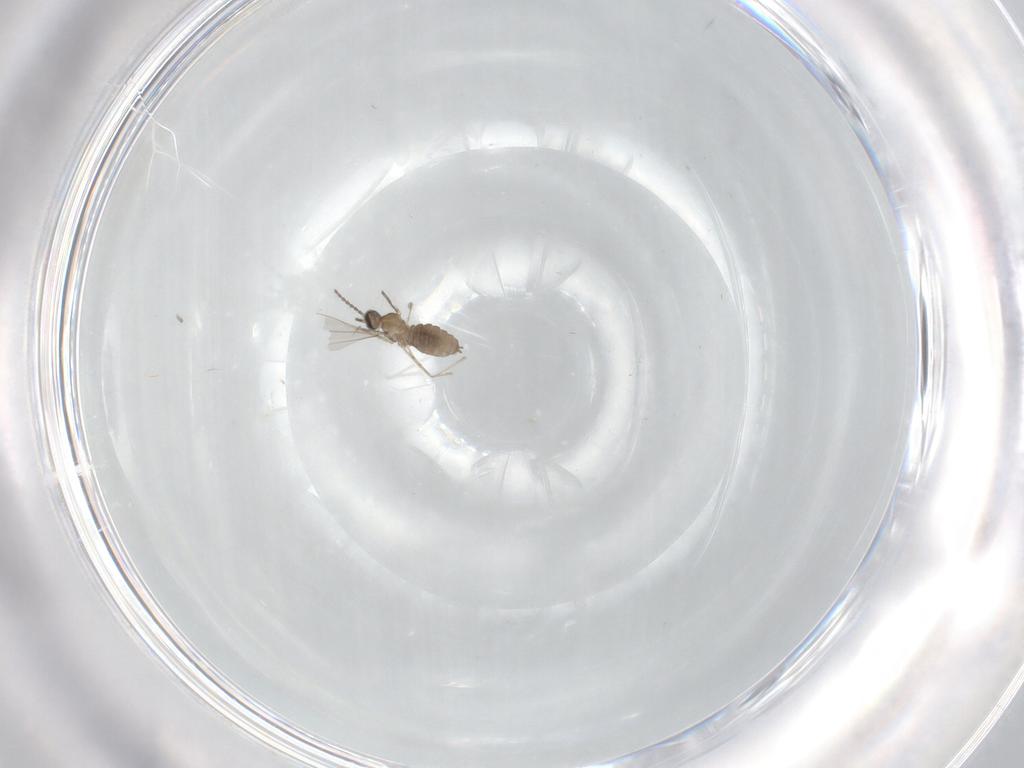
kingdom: Animalia
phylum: Arthropoda
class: Insecta
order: Diptera
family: Cecidomyiidae
